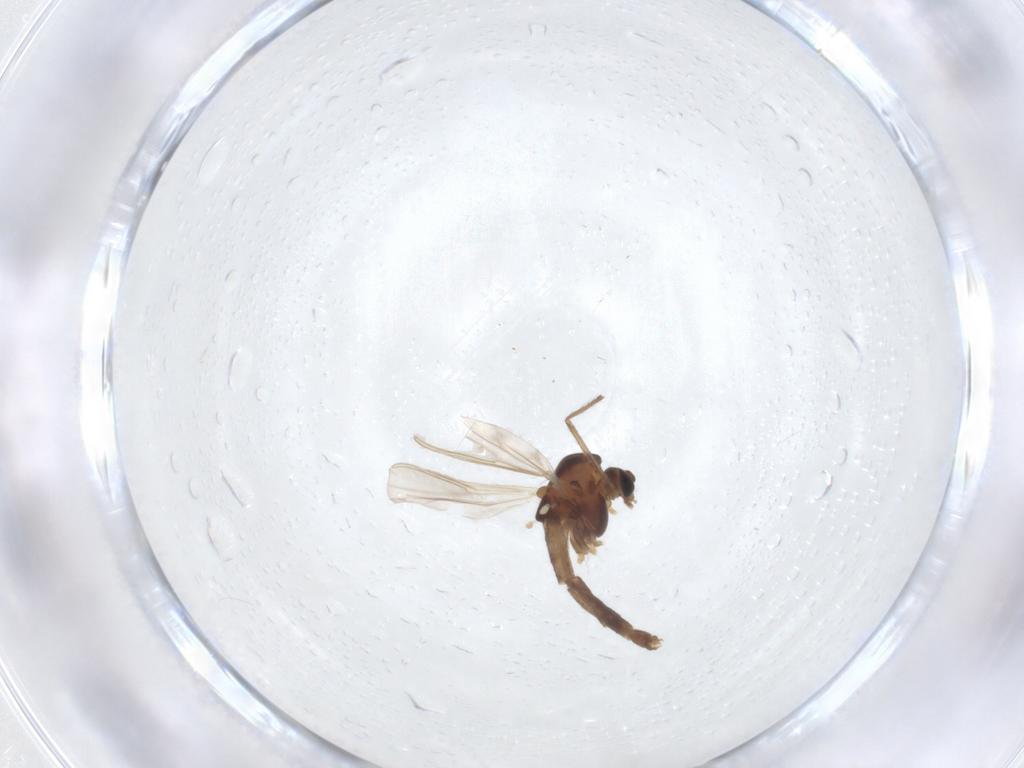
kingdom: Animalia
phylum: Arthropoda
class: Insecta
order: Diptera
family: Chironomidae
